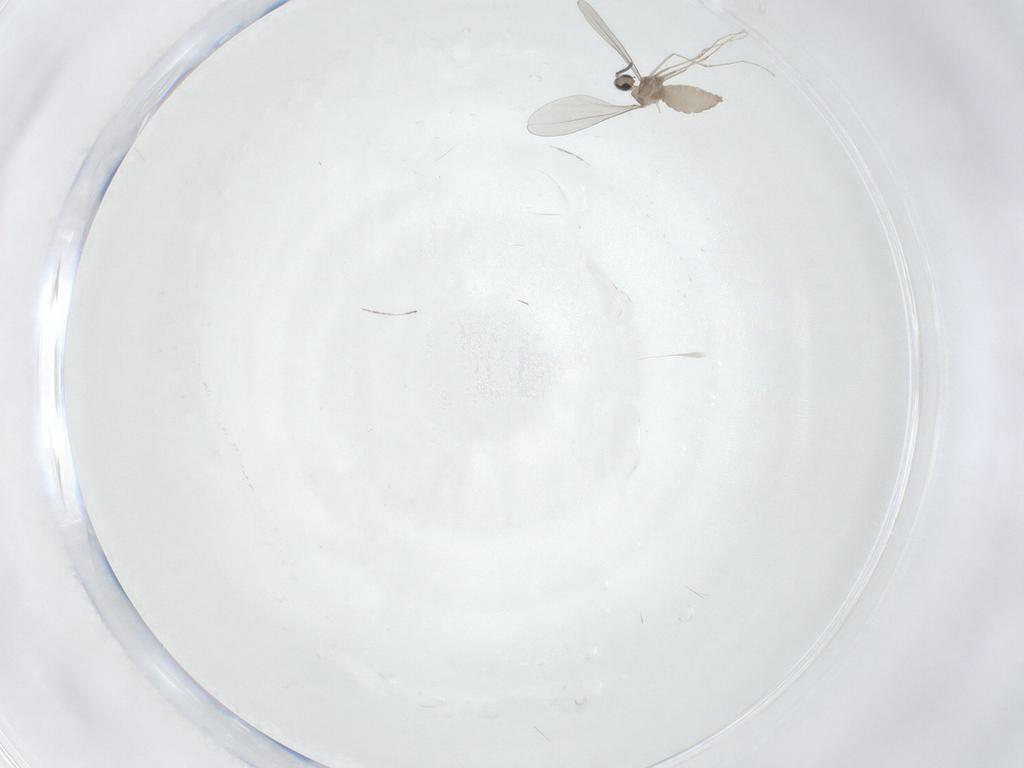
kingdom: Animalia
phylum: Arthropoda
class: Insecta
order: Diptera
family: Cecidomyiidae
